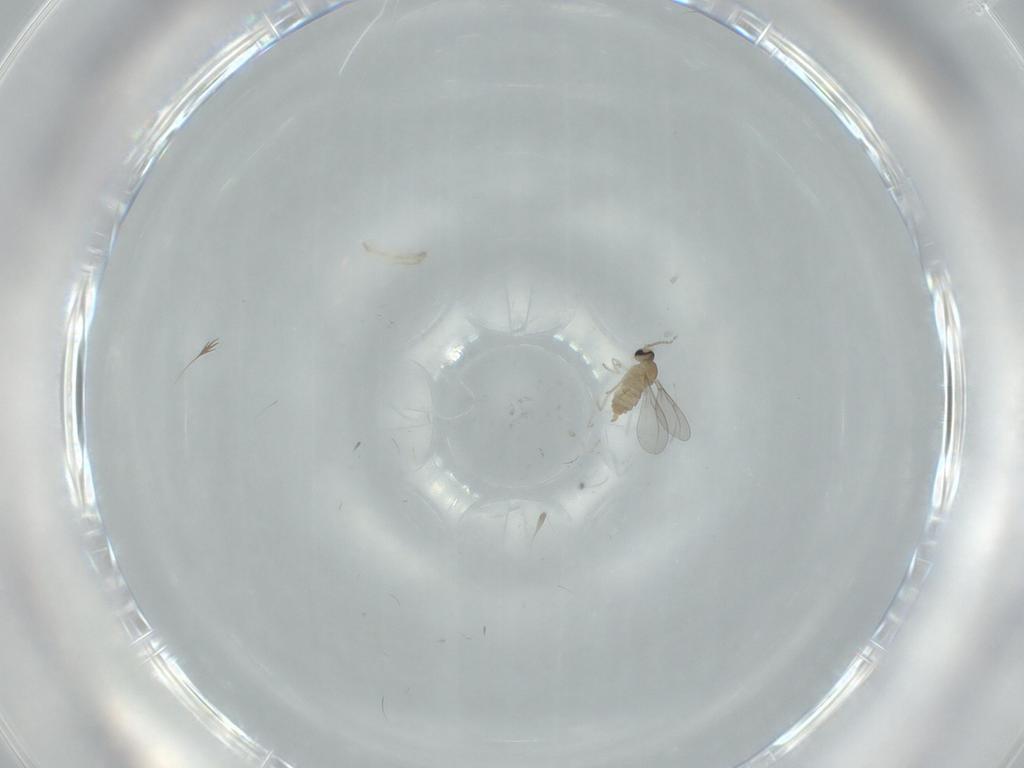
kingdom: Animalia
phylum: Arthropoda
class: Insecta
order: Diptera
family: Cecidomyiidae
